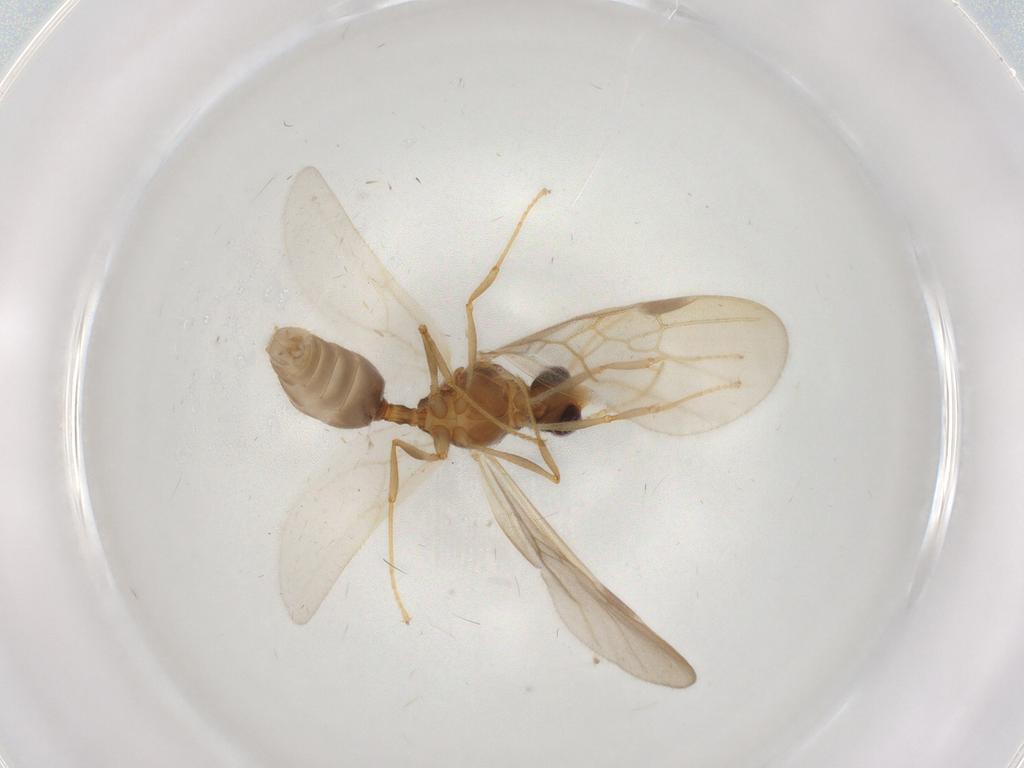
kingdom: Animalia
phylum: Arthropoda
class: Insecta
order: Hymenoptera
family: Formicidae
